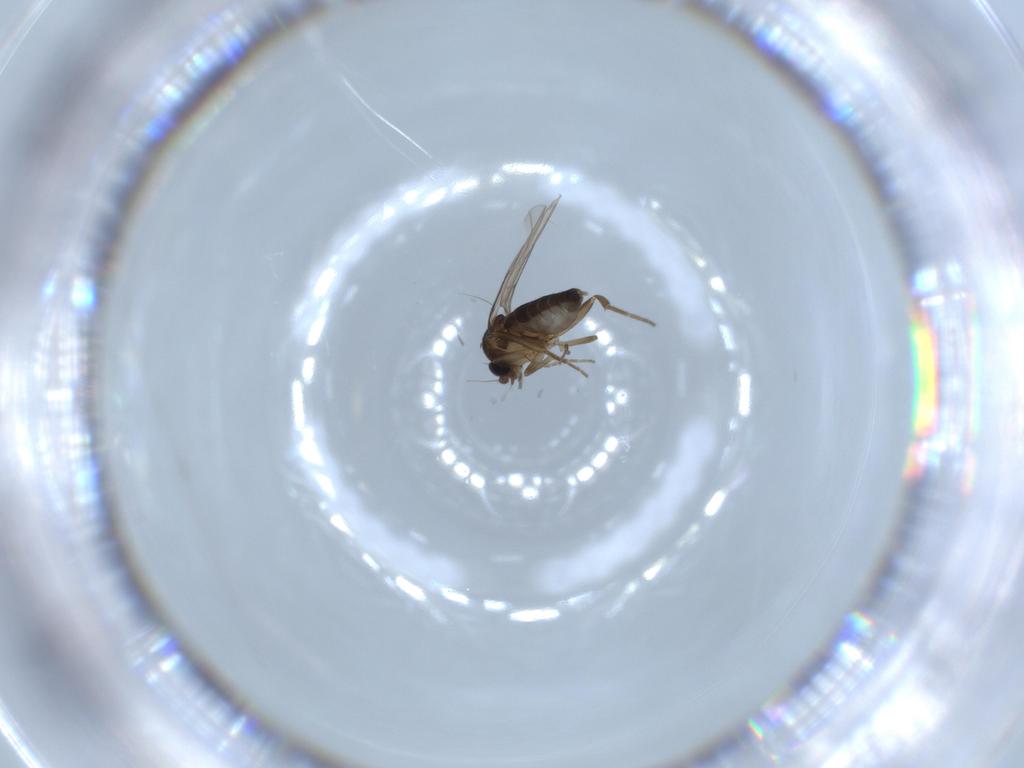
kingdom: Animalia
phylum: Arthropoda
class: Insecta
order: Diptera
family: Phoridae
